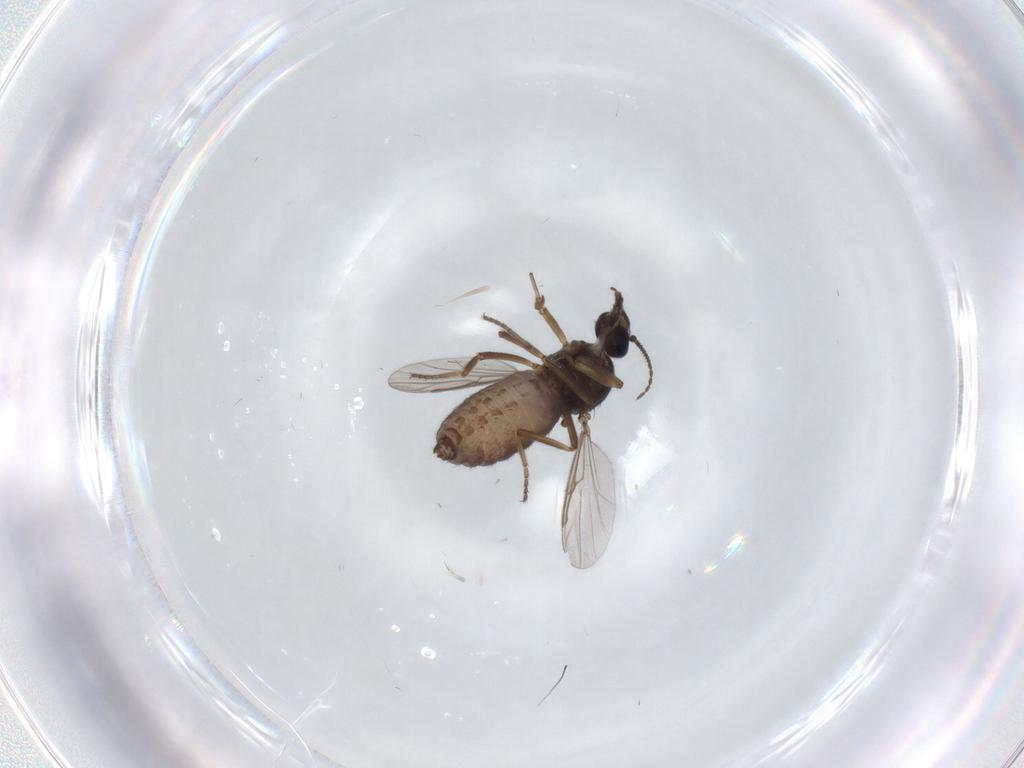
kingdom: Animalia
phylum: Arthropoda
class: Insecta
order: Diptera
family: Ceratopogonidae
